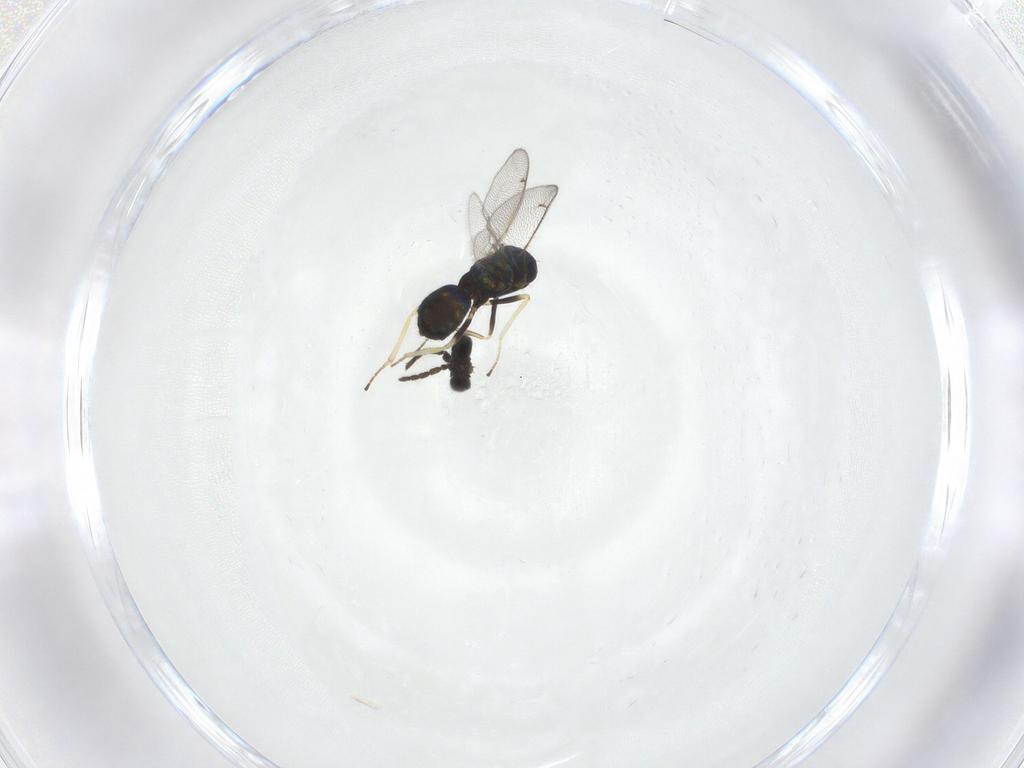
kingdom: Animalia
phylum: Arthropoda
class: Insecta
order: Hymenoptera
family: Eulophidae
